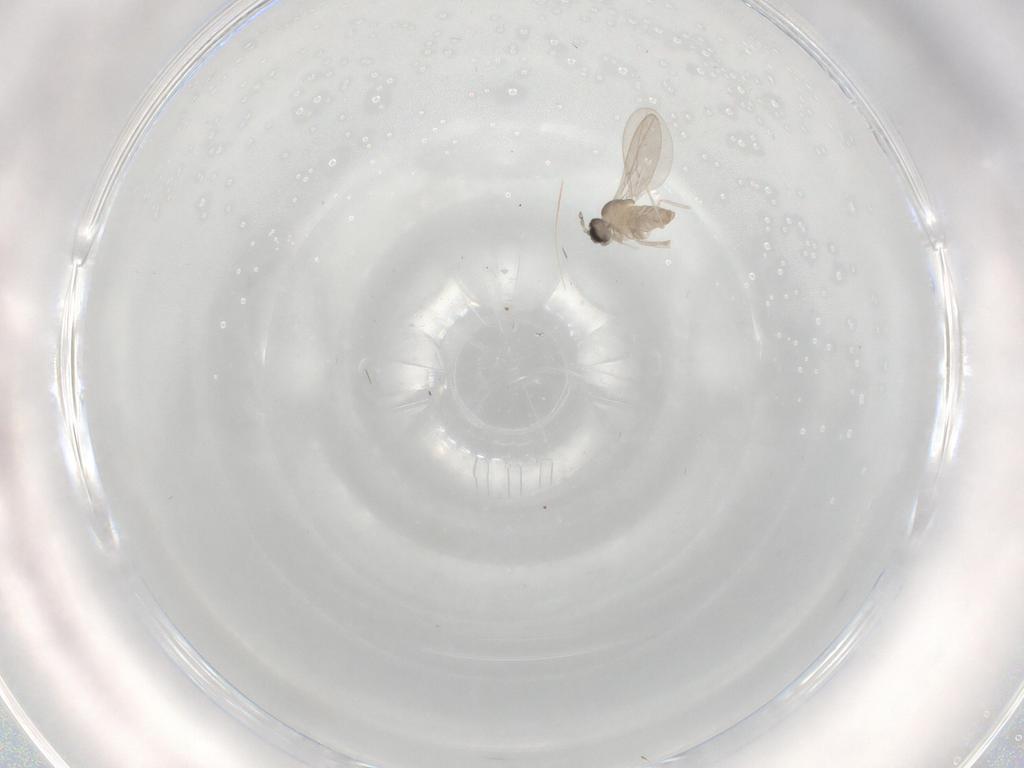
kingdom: Animalia
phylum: Arthropoda
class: Insecta
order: Diptera
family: Cecidomyiidae
